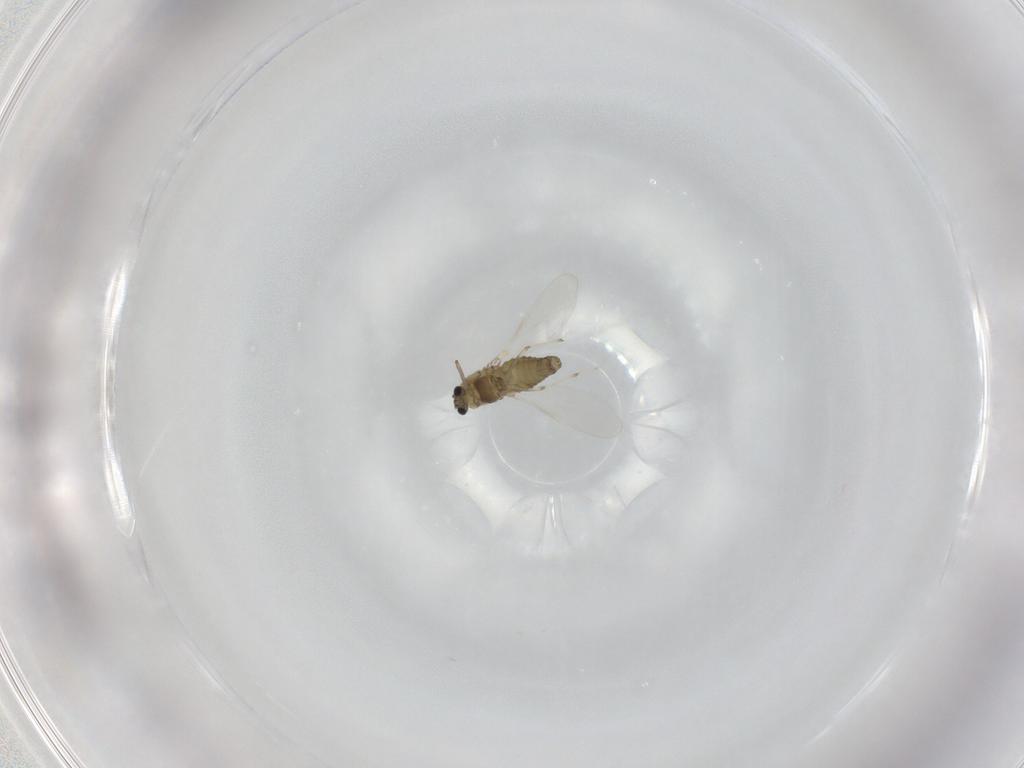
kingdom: Animalia
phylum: Arthropoda
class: Insecta
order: Diptera
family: Chironomidae
